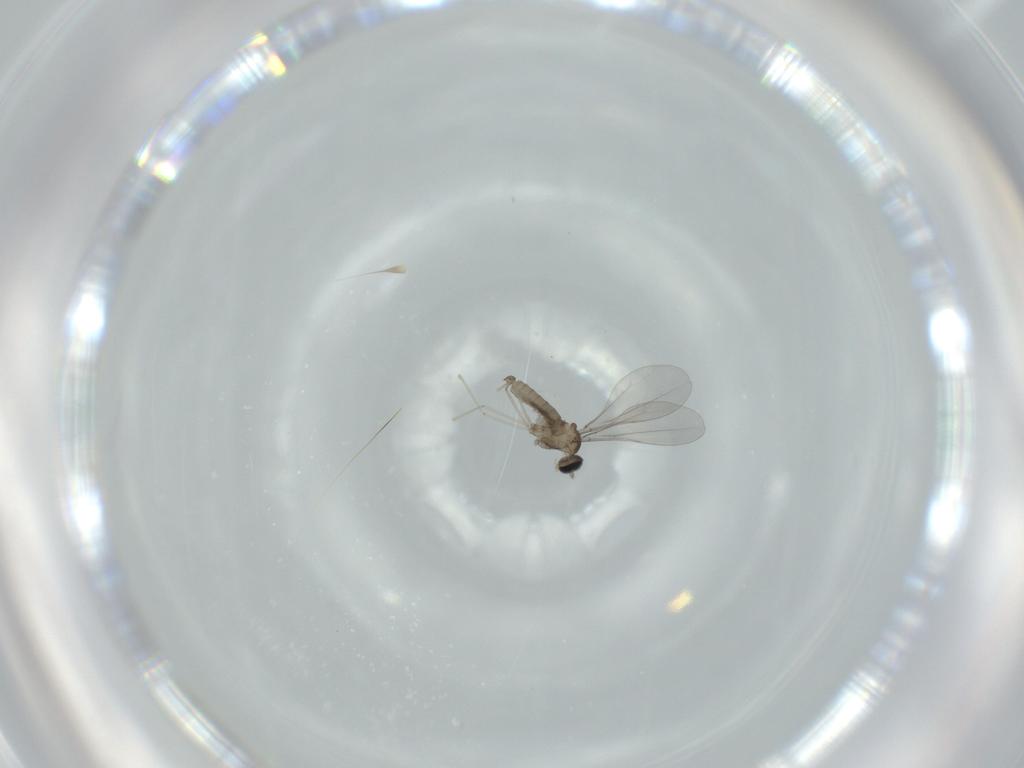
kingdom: Animalia
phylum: Arthropoda
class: Insecta
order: Diptera
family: Cecidomyiidae
